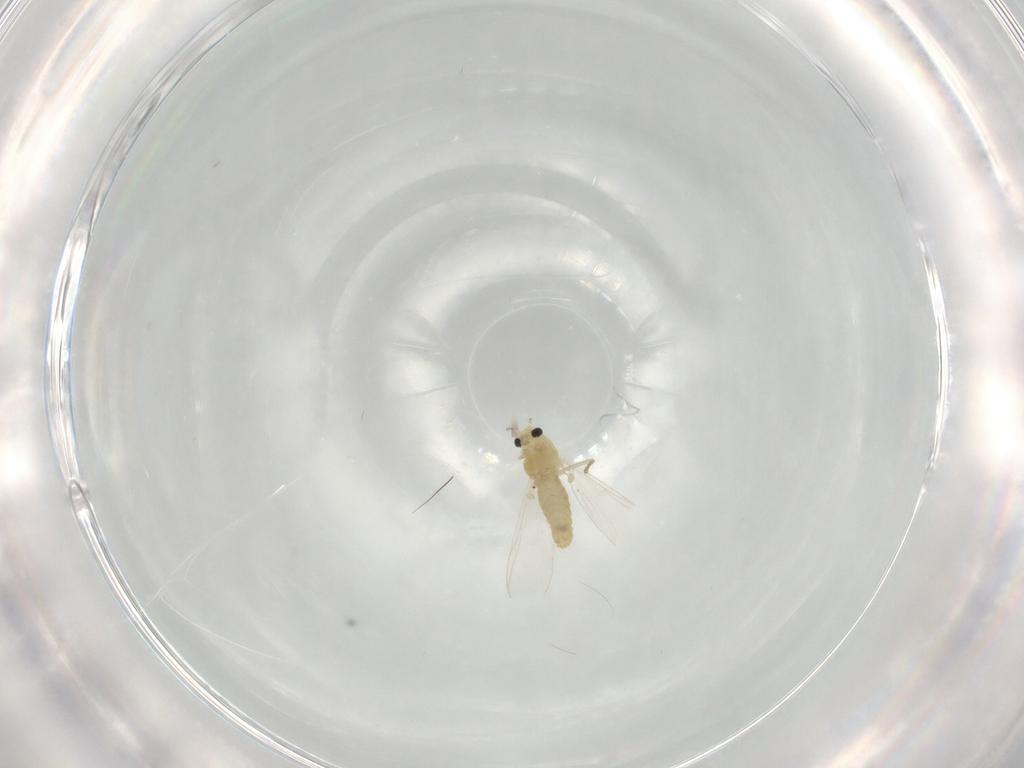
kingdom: Animalia
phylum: Arthropoda
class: Insecta
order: Diptera
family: Chironomidae
